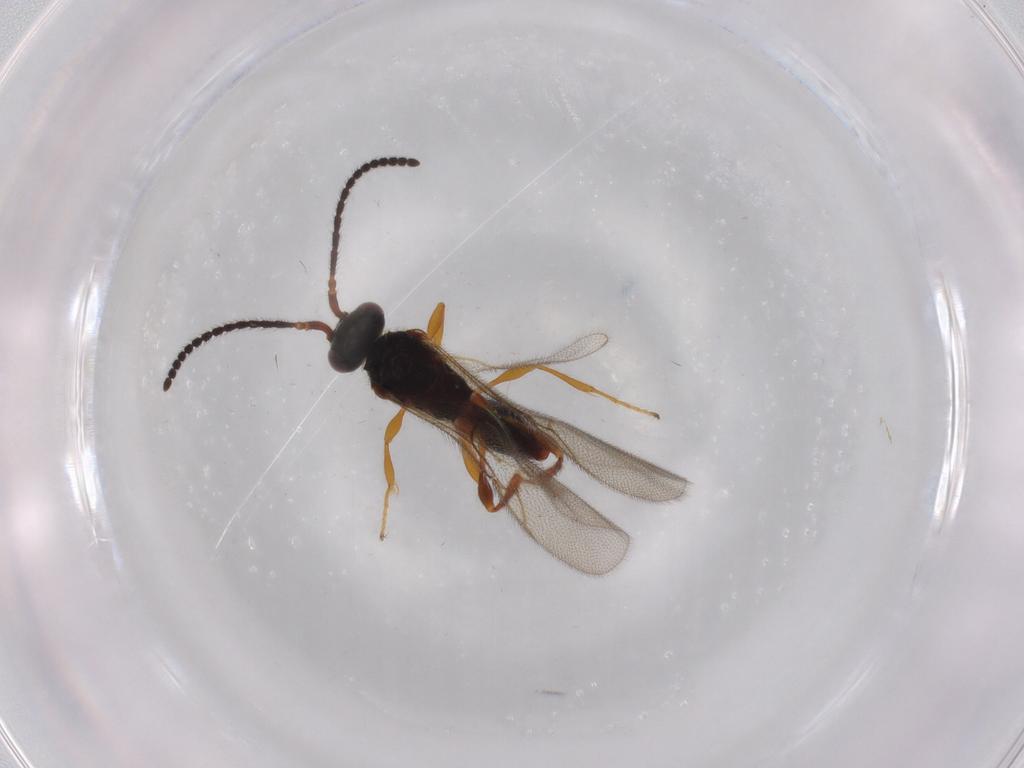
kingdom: Animalia
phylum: Arthropoda
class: Insecta
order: Hymenoptera
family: Diapriidae
